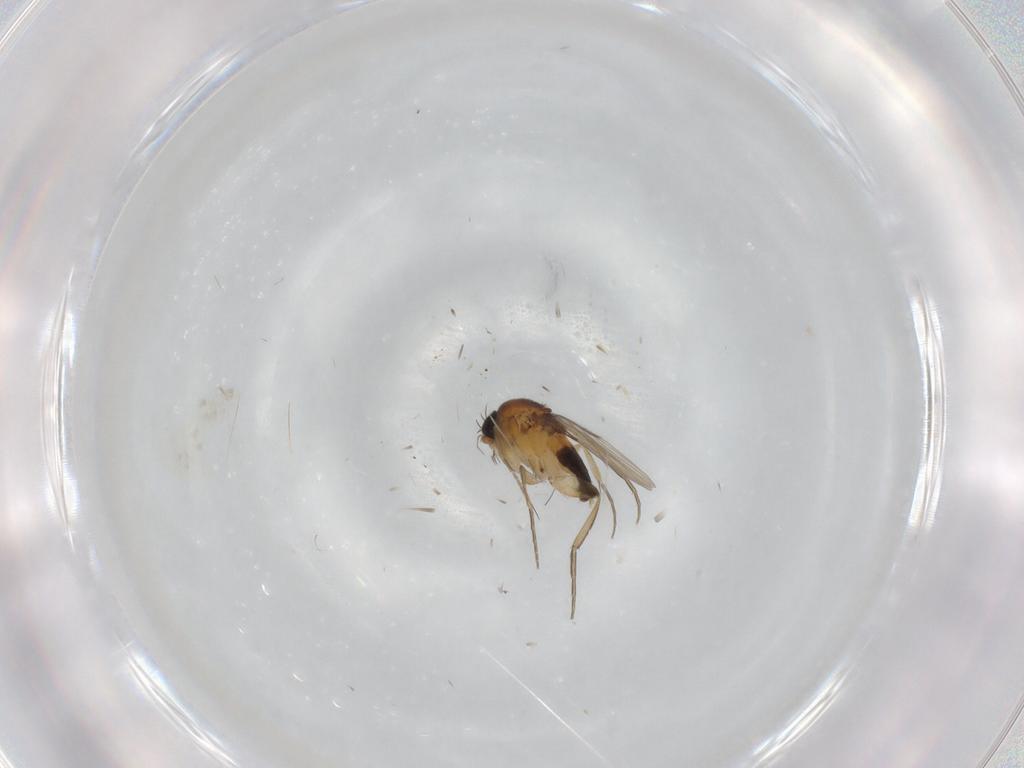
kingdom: Animalia
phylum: Arthropoda
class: Insecta
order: Diptera
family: Phoridae
